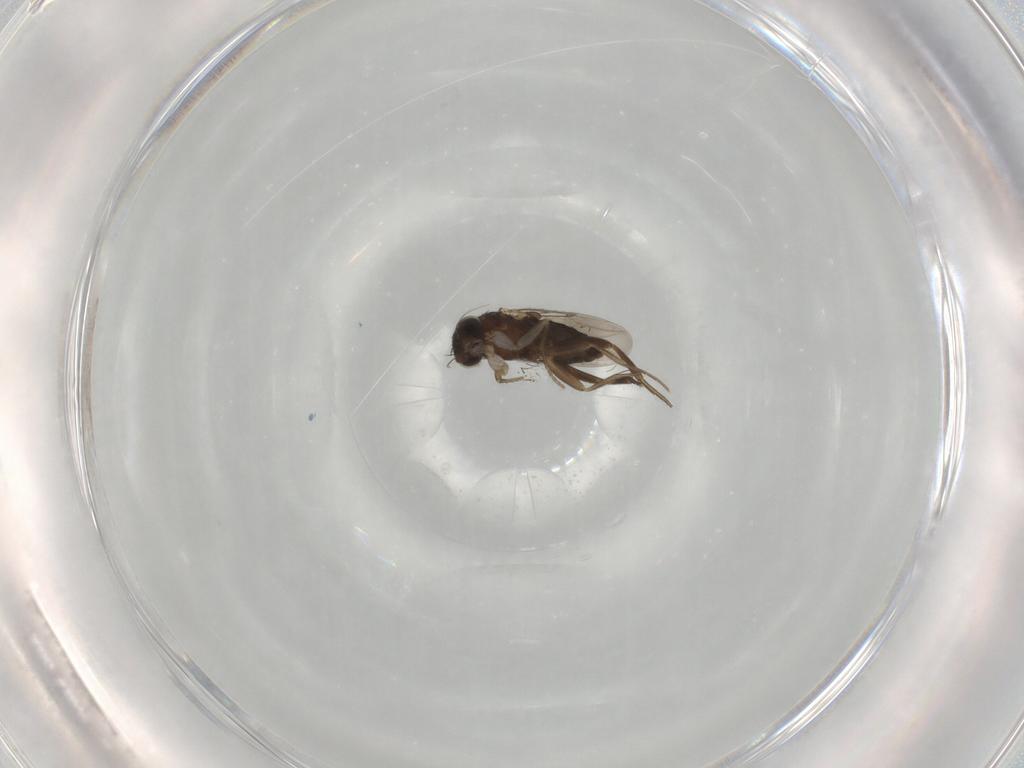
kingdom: Animalia
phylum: Arthropoda
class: Insecta
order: Diptera
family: Phoridae
